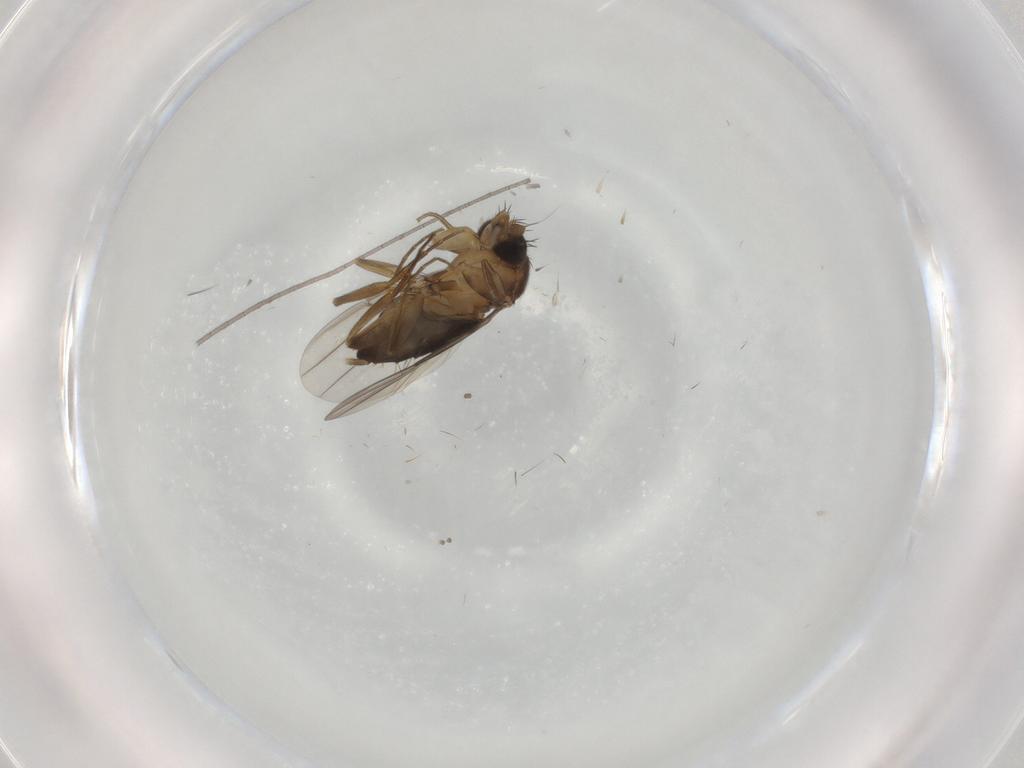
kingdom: Animalia
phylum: Arthropoda
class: Insecta
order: Diptera
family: Phoridae
